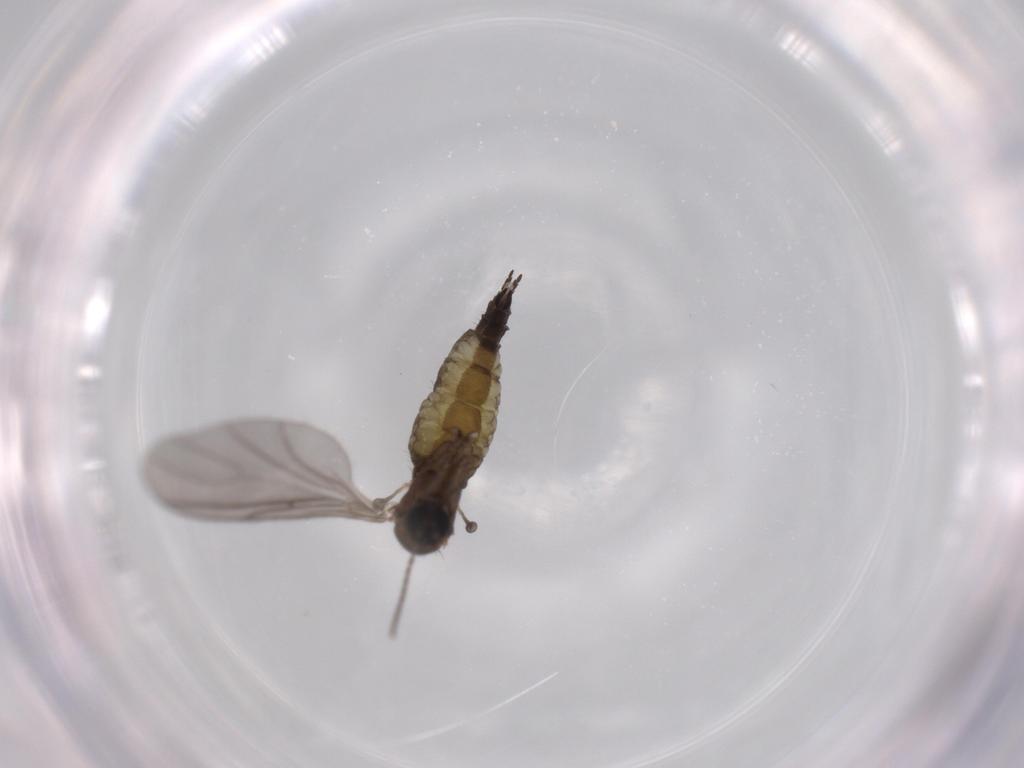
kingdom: Animalia
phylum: Arthropoda
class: Insecta
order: Diptera
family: Sciaridae
